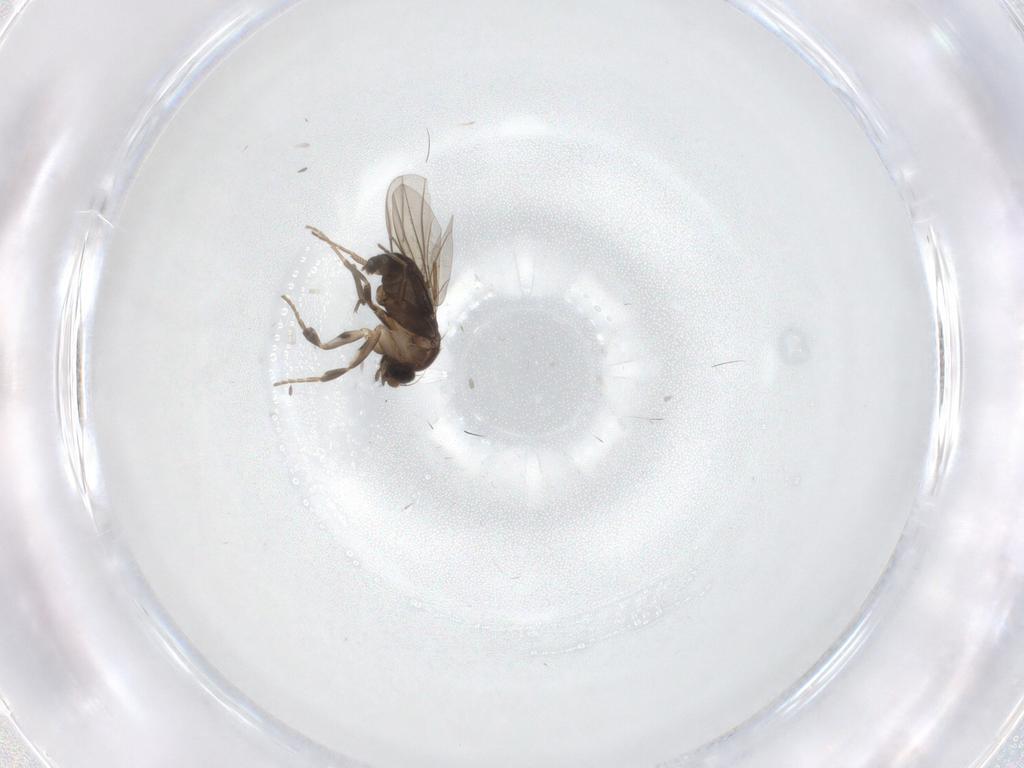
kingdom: Animalia
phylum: Arthropoda
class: Insecta
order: Diptera
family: Phoridae
